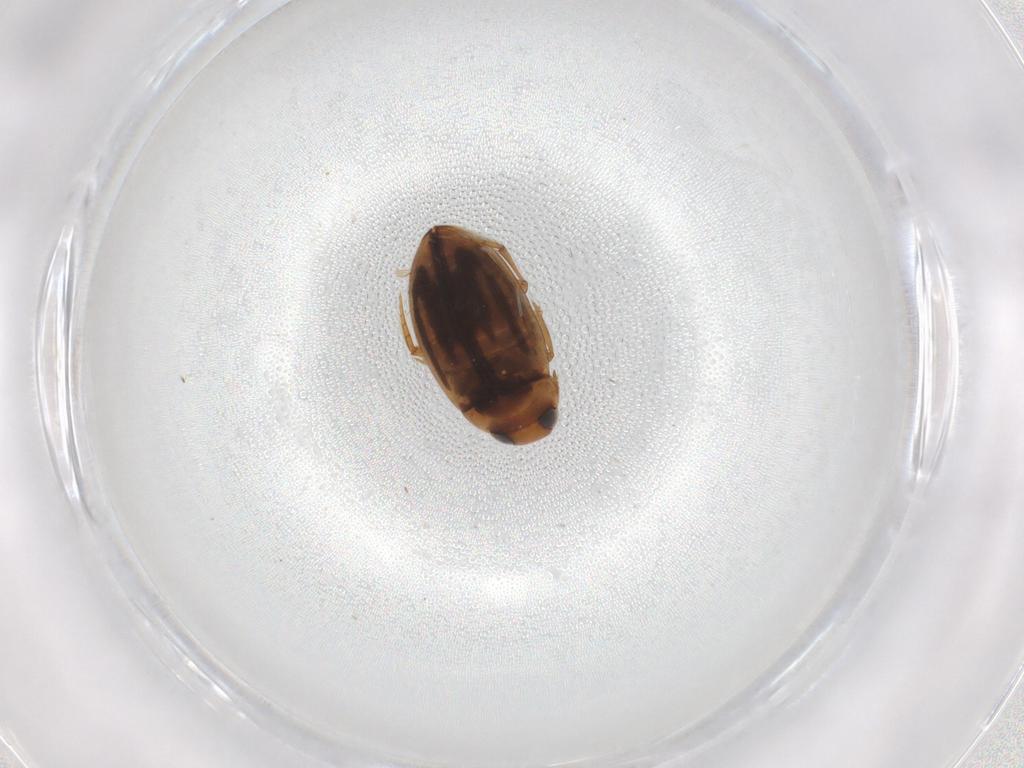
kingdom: Animalia
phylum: Arthropoda
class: Insecta
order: Coleoptera
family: Dytiscidae
